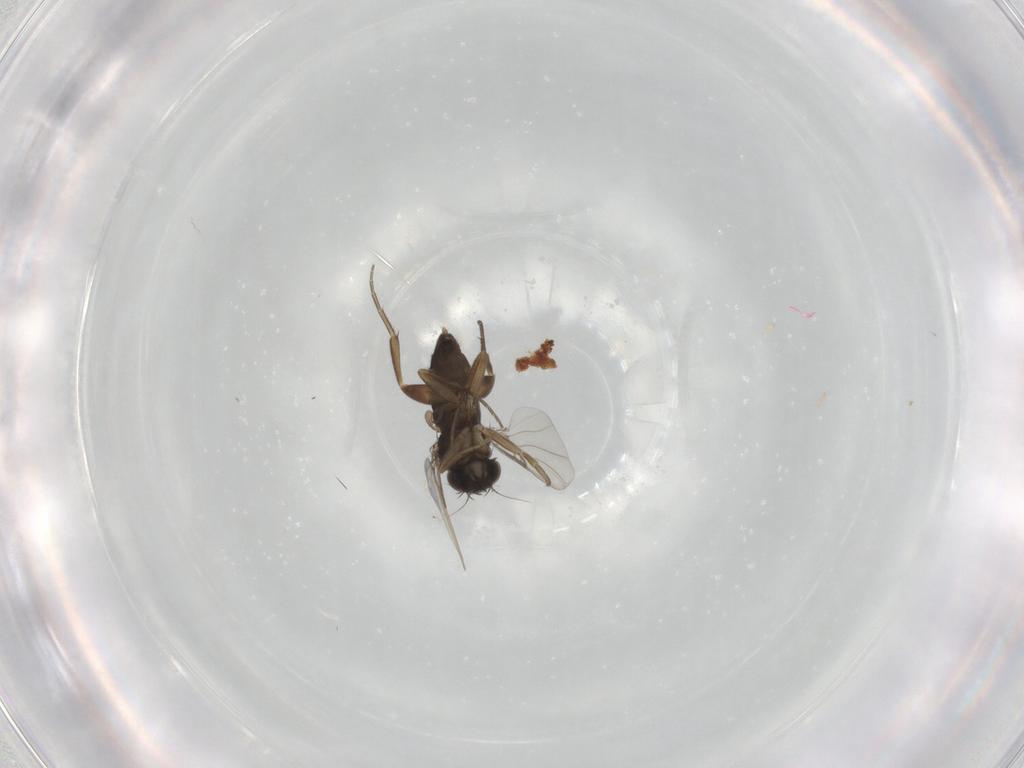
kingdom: Animalia
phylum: Arthropoda
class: Insecta
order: Diptera
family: Phoridae
